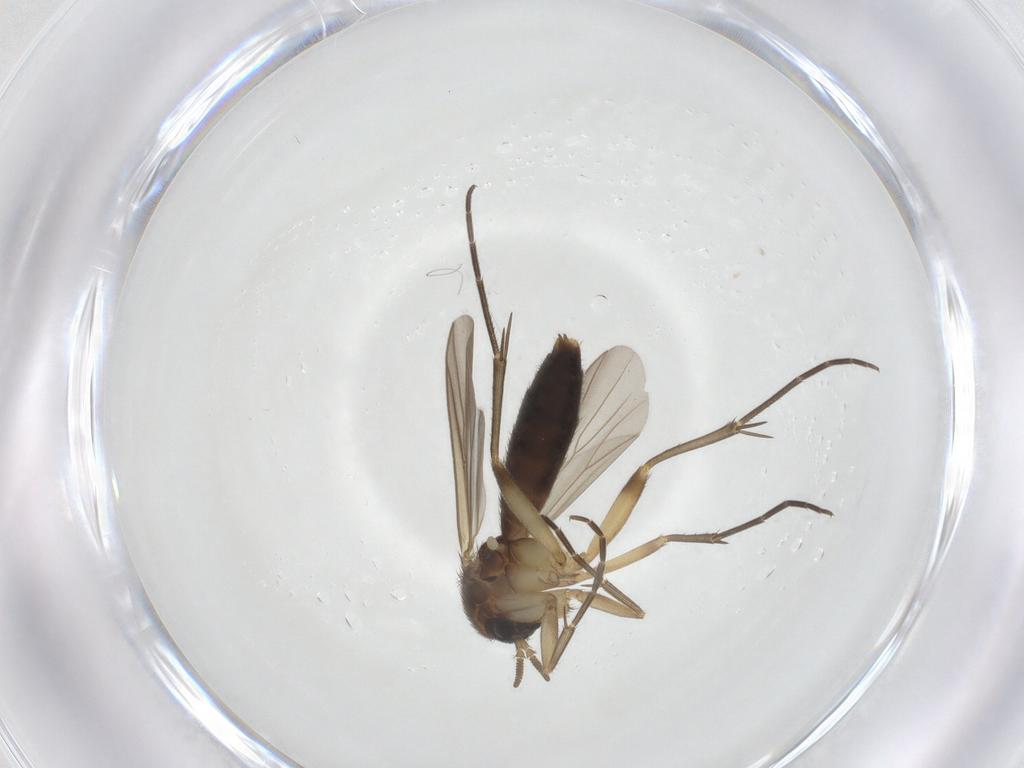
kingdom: Animalia
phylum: Arthropoda
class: Insecta
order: Diptera
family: Mycetophilidae
